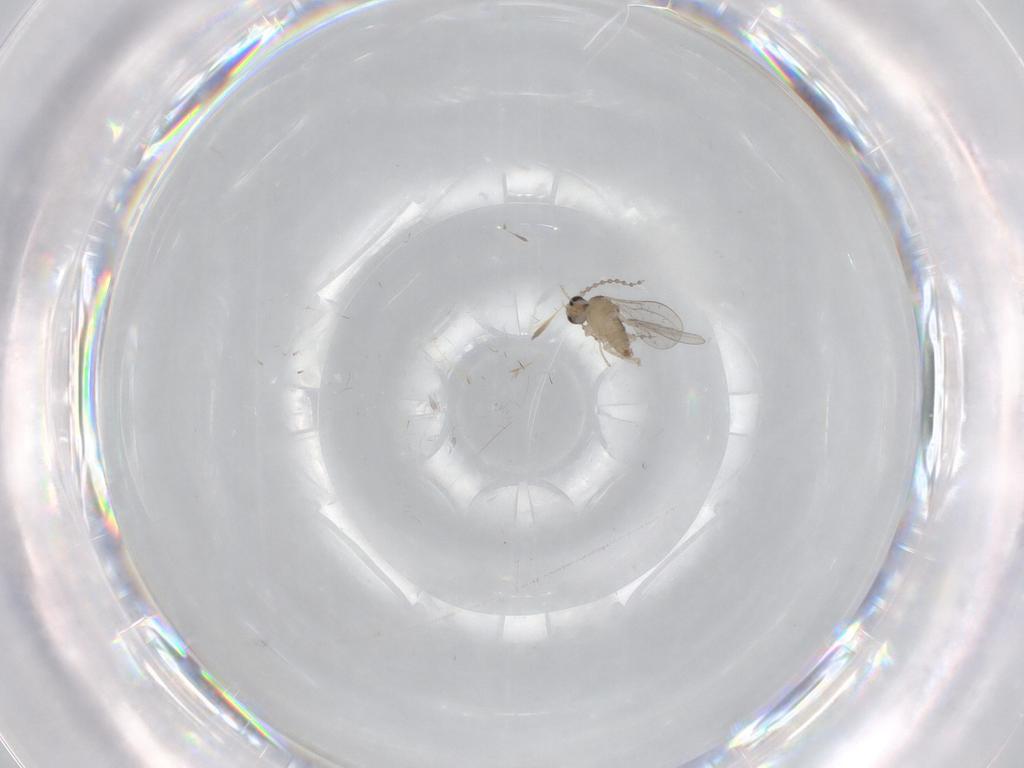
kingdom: Animalia
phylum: Arthropoda
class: Insecta
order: Diptera
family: Cecidomyiidae
